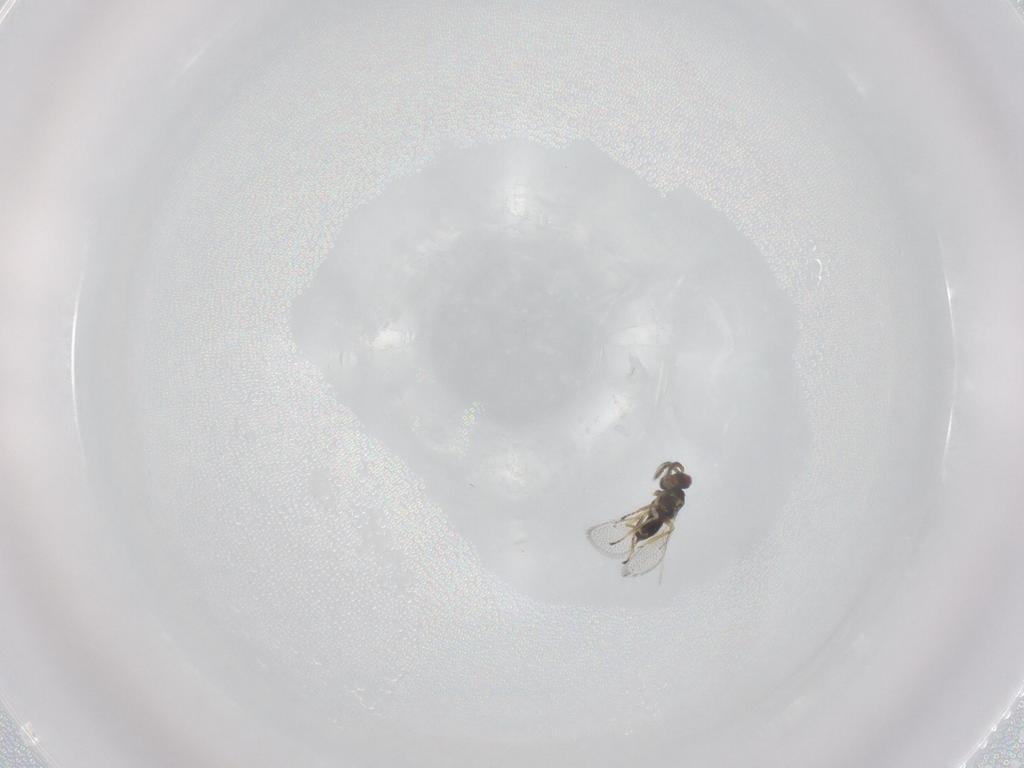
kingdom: Animalia
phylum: Arthropoda
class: Insecta
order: Hymenoptera
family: Eulophidae
